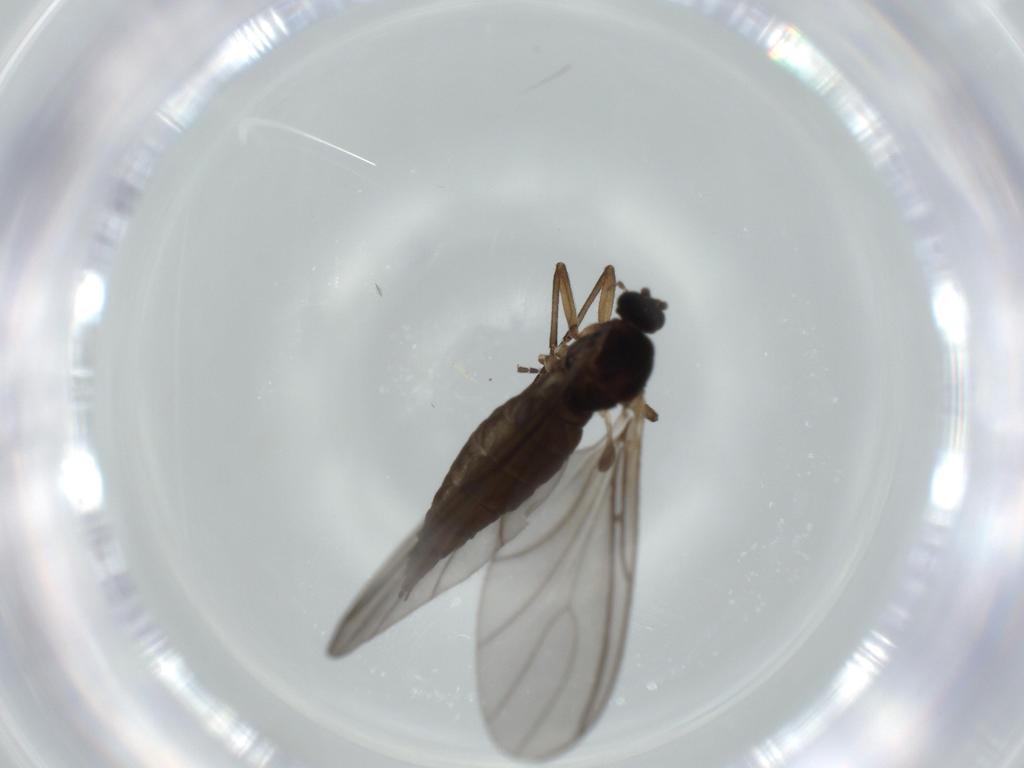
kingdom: Animalia
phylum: Arthropoda
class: Insecta
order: Diptera
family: Sciaridae
